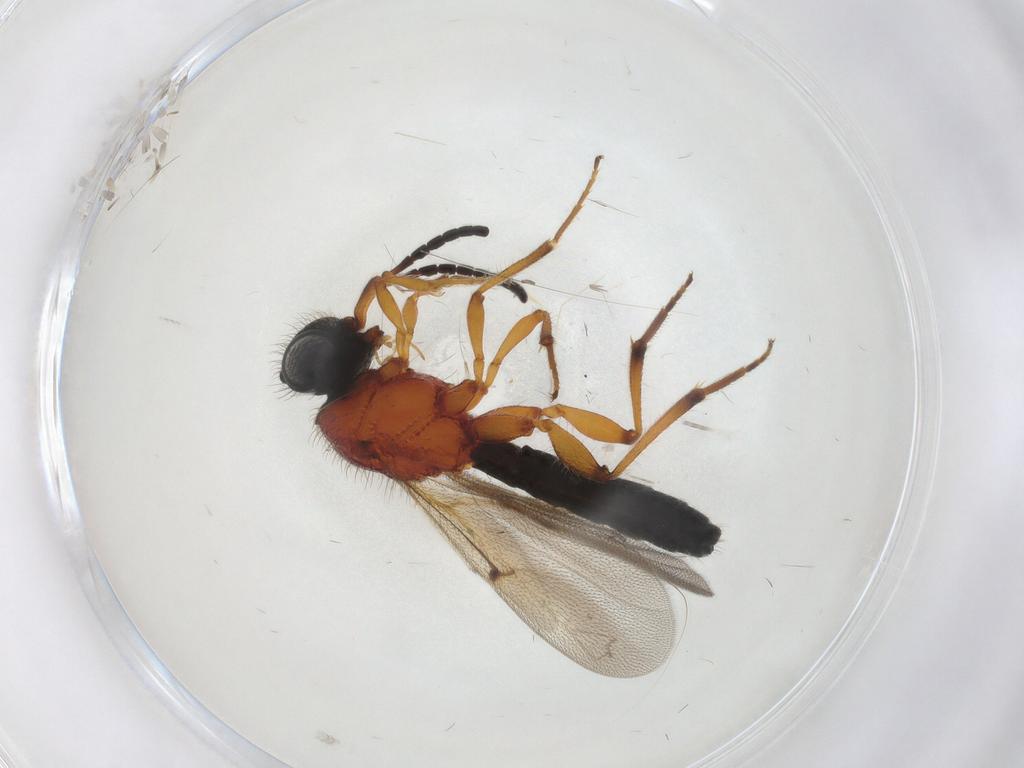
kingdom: Animalia
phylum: Arthropoda
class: Insecta
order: Hymenoptera
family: Scelionidae
